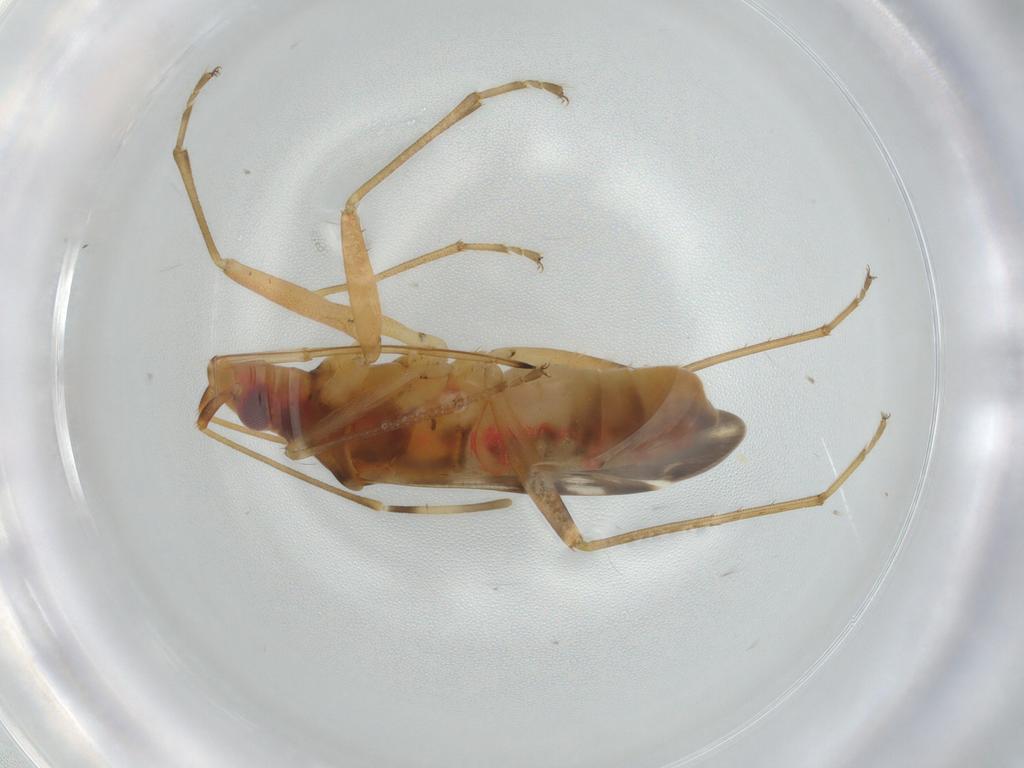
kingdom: Animalia
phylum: Arthropoda
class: Insecta
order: Hemiptera
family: Rhyparochromidae
